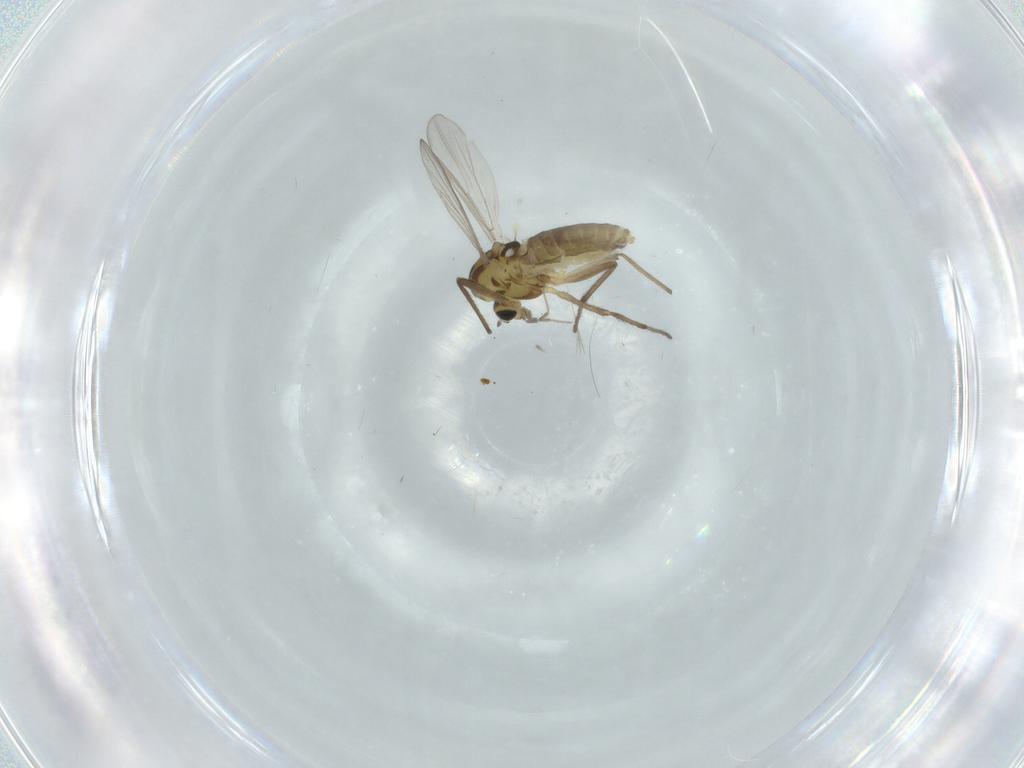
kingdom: Animalia
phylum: Arthropoda
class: Insecta
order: Diptera
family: Chironomidae
